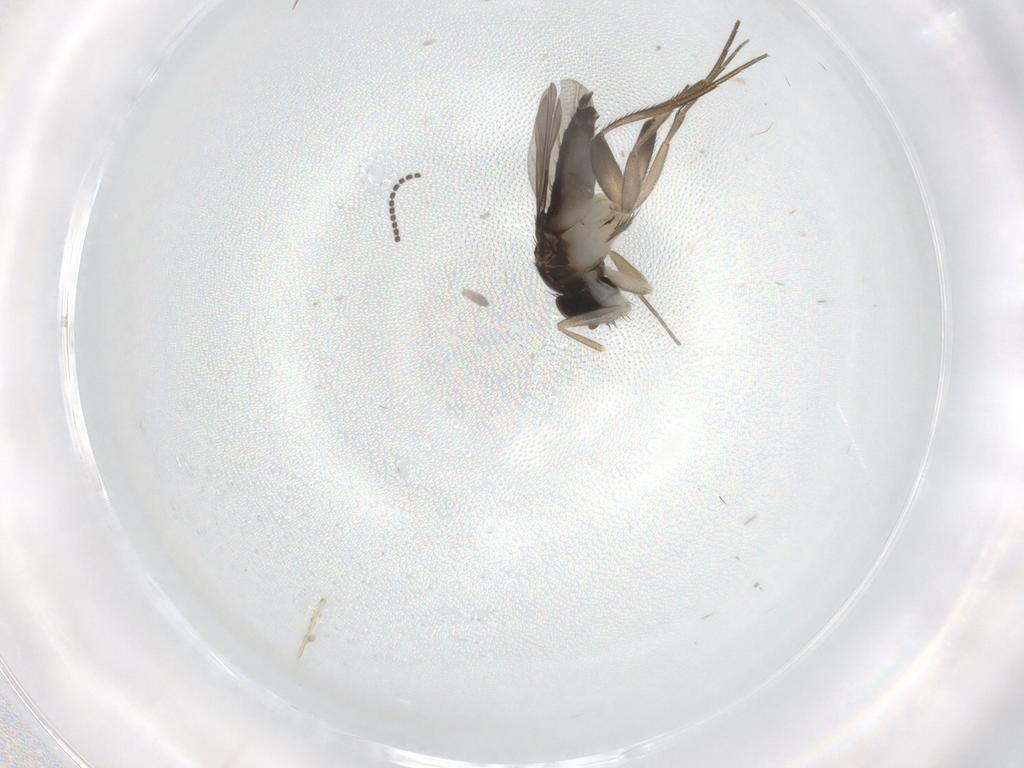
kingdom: Animalia
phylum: Arthropoda
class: Insecta
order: Diptera
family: Phoridae
